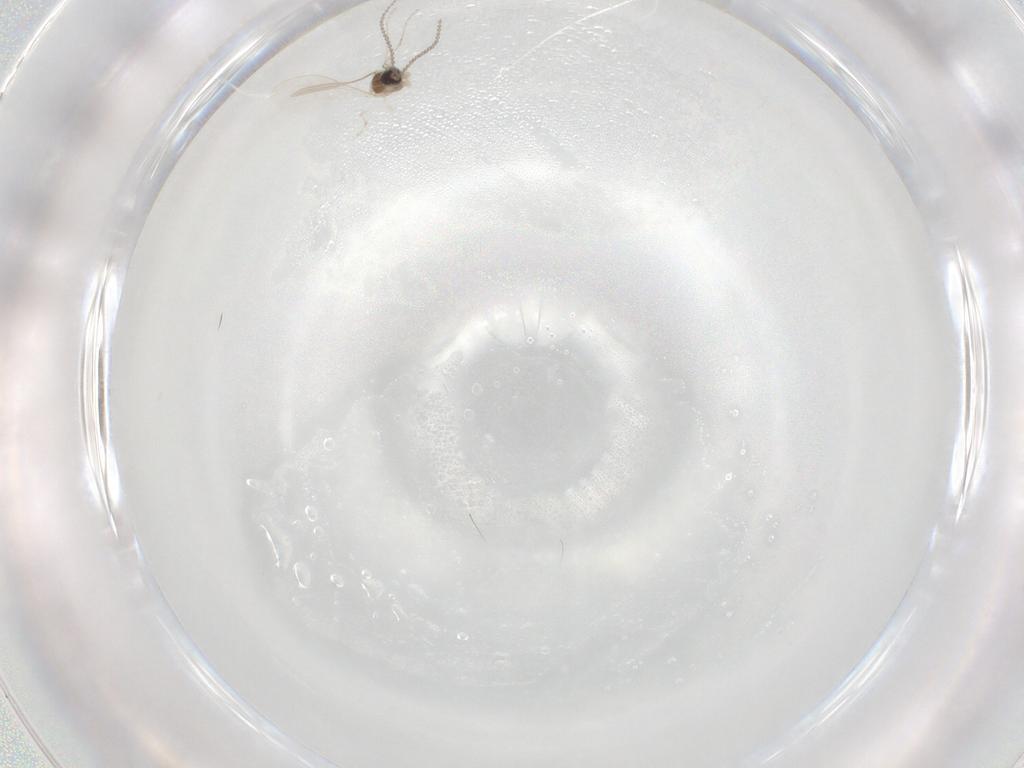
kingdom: Animalia
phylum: Arthropoda
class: Insecta
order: Diptera
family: Cecidomyiidae
